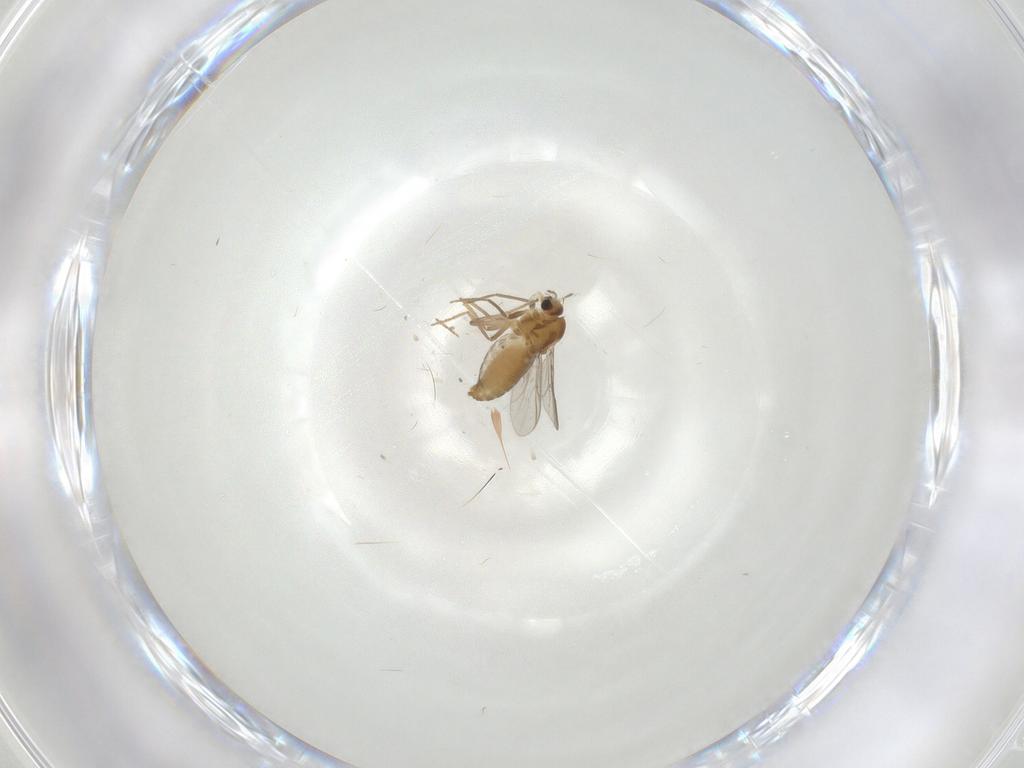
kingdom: Animalia
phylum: Arthropoda
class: Insecta
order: Diptera
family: Chironomidae
